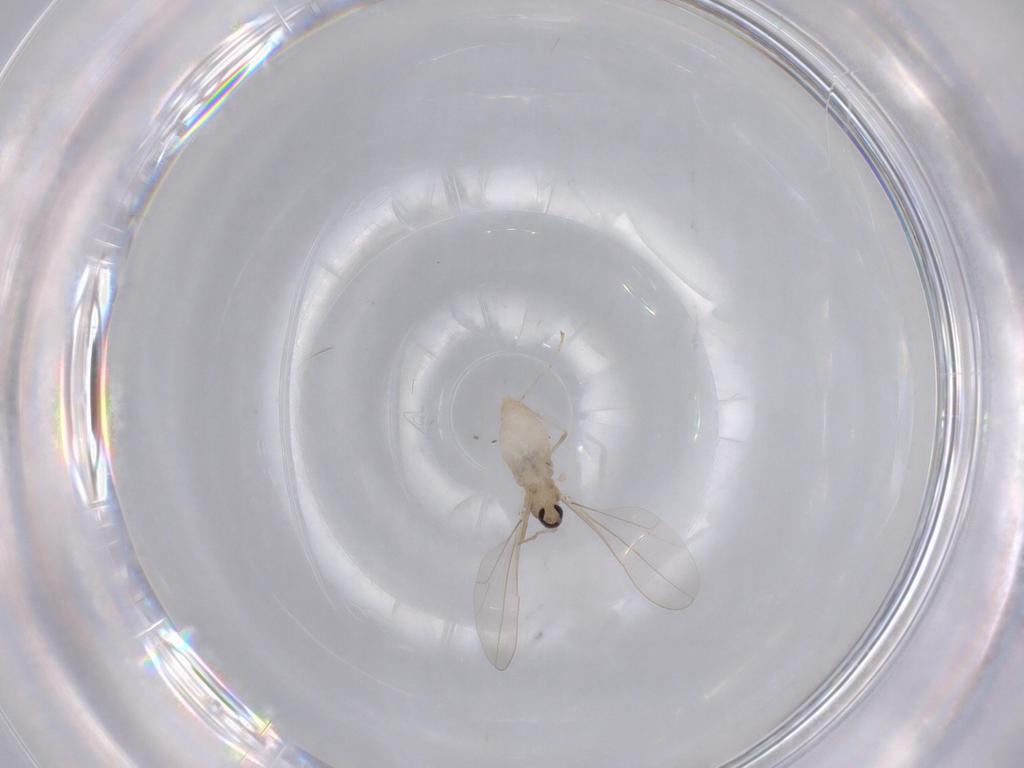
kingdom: Animalia
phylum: Arthropoda
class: Insecta
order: Diptera
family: Cecidomyiidae
